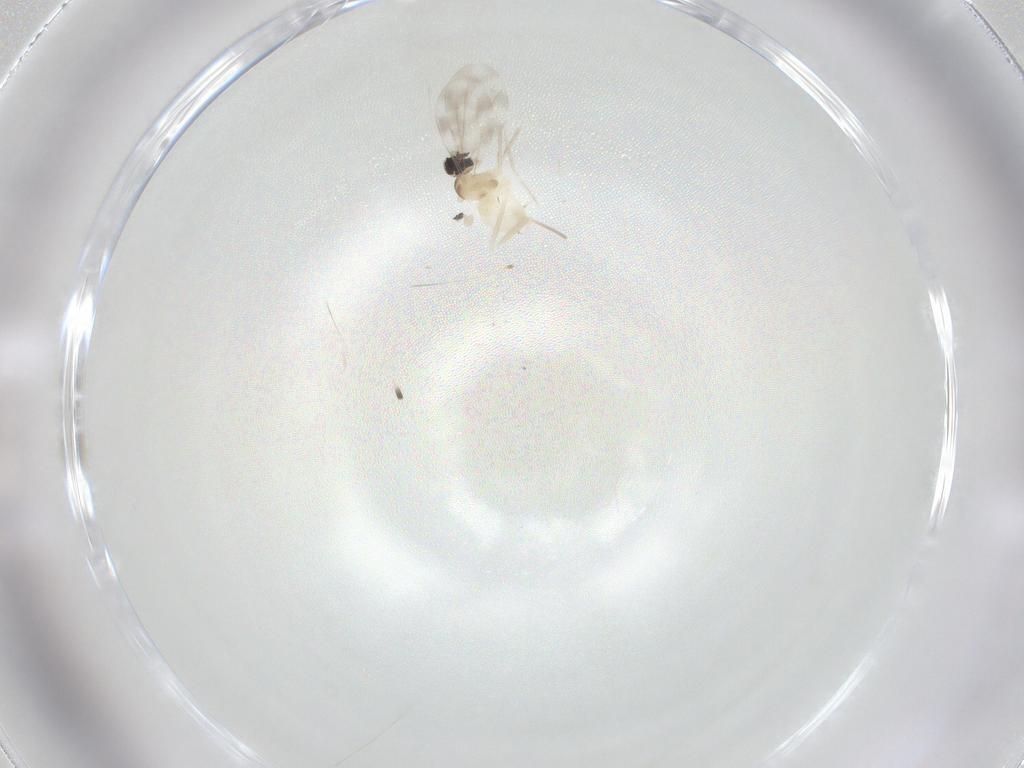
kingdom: Animalia
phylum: Arthropoda
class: Insecta
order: Diptera
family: Cecidomyiidae
